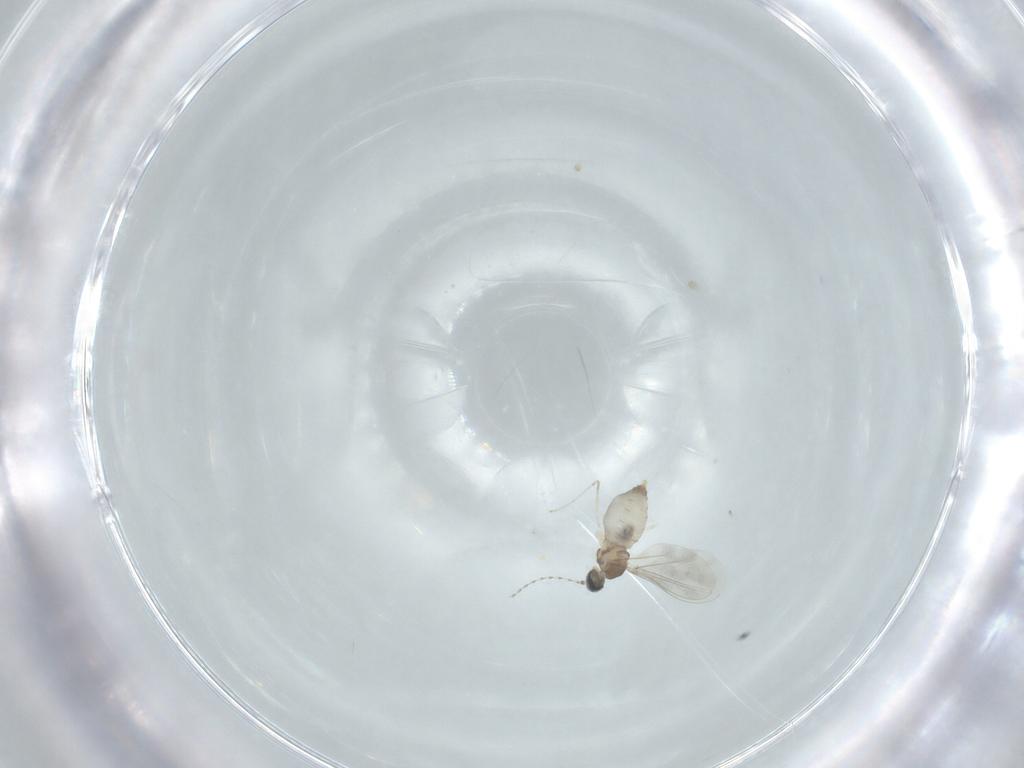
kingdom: Animalia
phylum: Arthropoda
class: Insecta
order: Diptera
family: Cecidomyiidae
